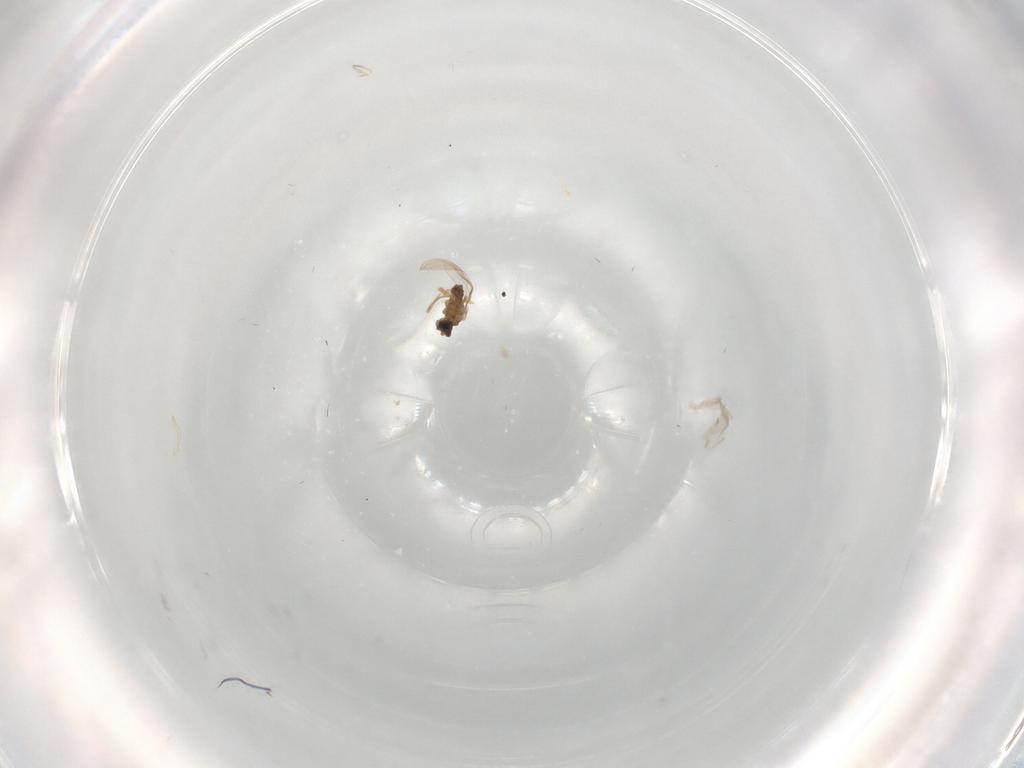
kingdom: Animalia
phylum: Arthropoda
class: Insecta
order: Diptera
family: Cecidomyiidae
